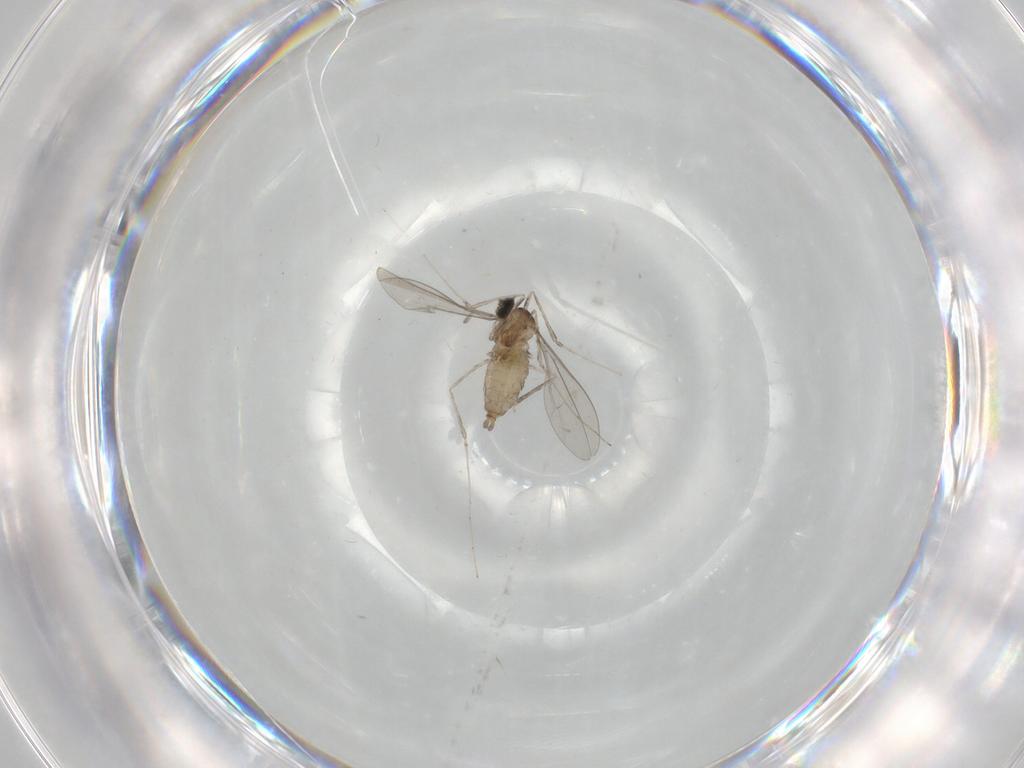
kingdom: Animalia
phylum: Arthropoda
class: Insecta
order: Diptera
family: Cecidomyiidae
